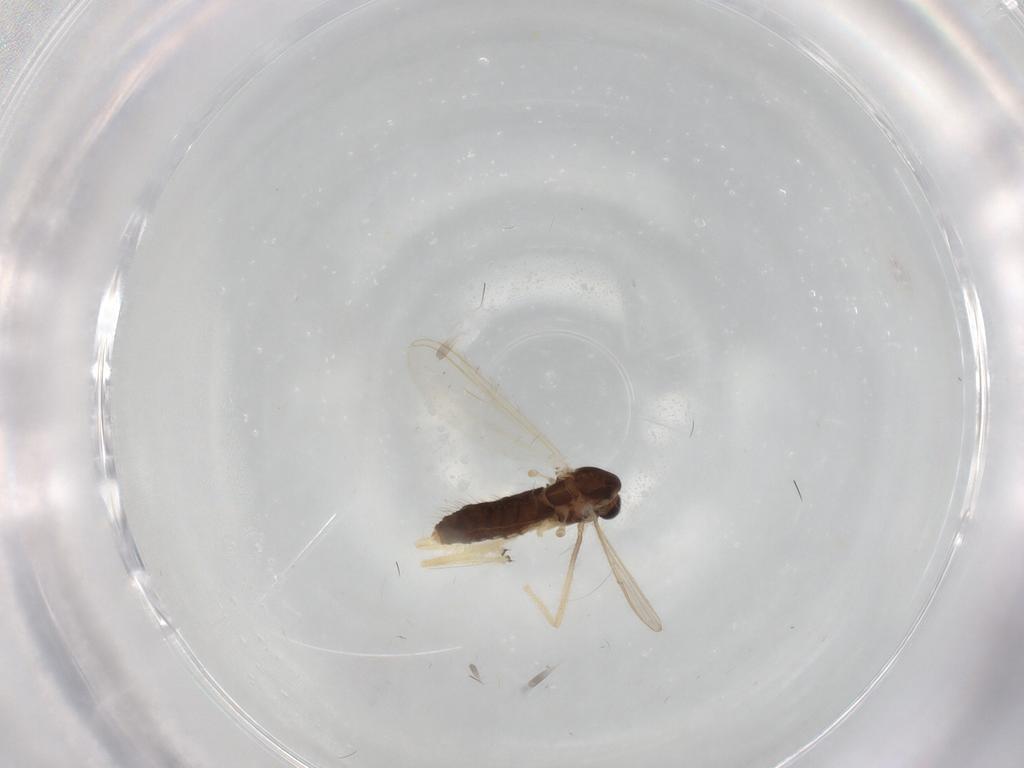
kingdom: Animalia
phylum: Arthropoda
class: Insecta
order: Diptera
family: Chironomidae
